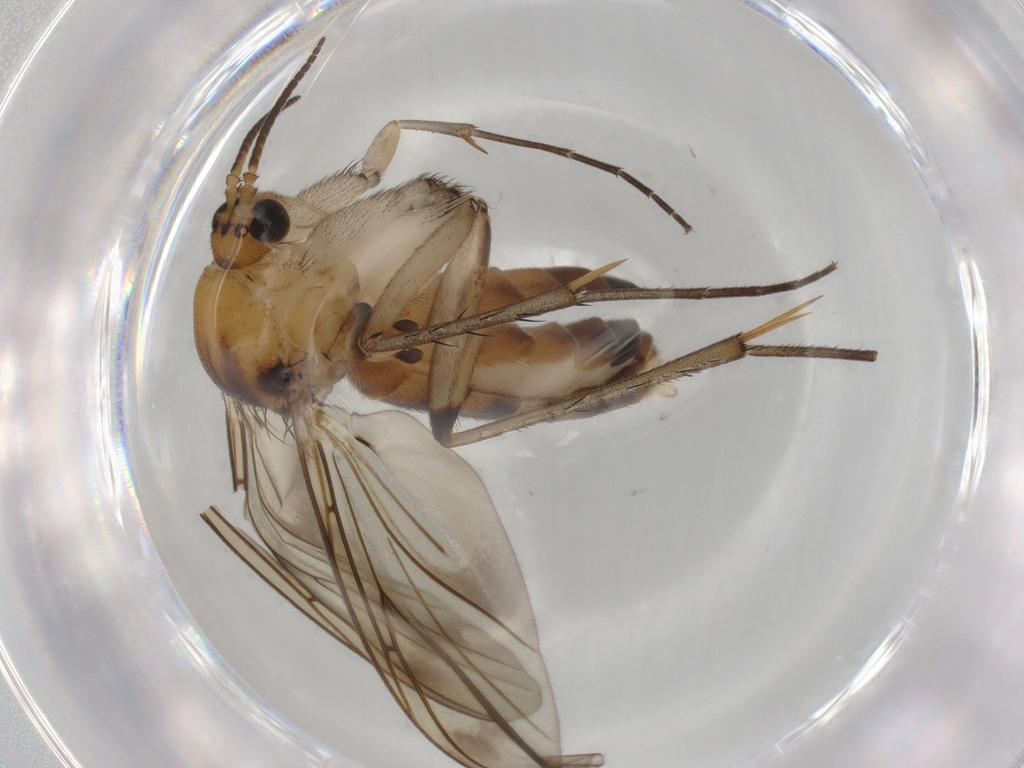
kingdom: Animalia
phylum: Arthropoda
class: Insecta
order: Diptera
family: Mycetophilidae
